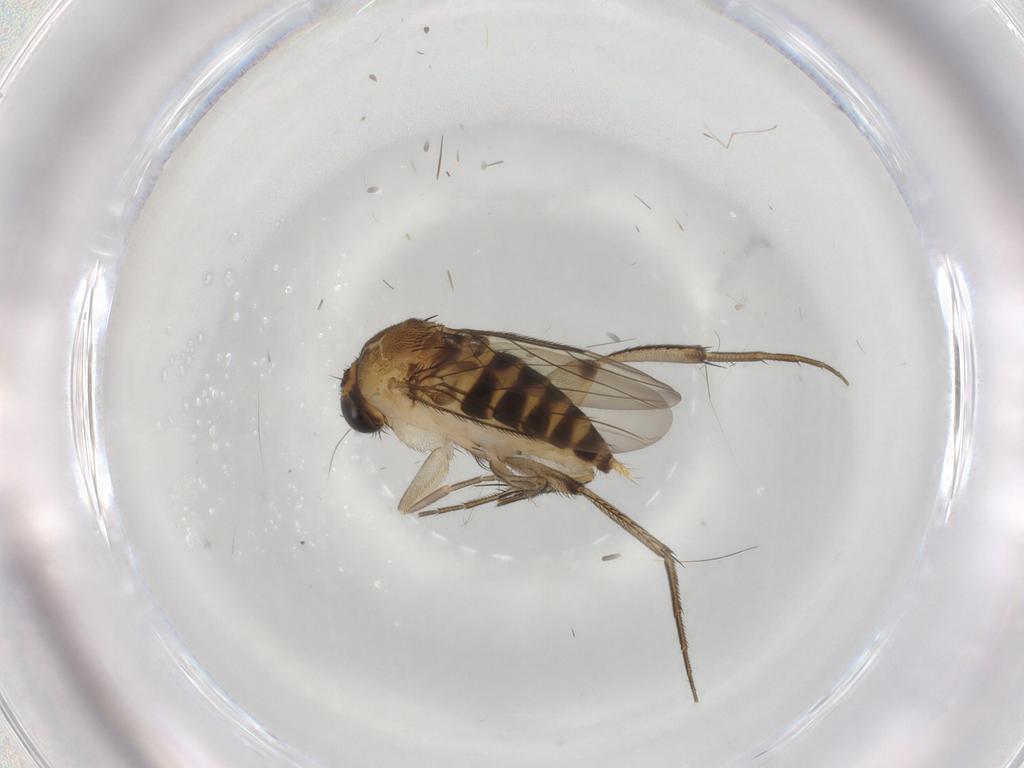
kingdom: Animalia
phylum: Arthropoda
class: Insecta
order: Diptera
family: Phoridae
